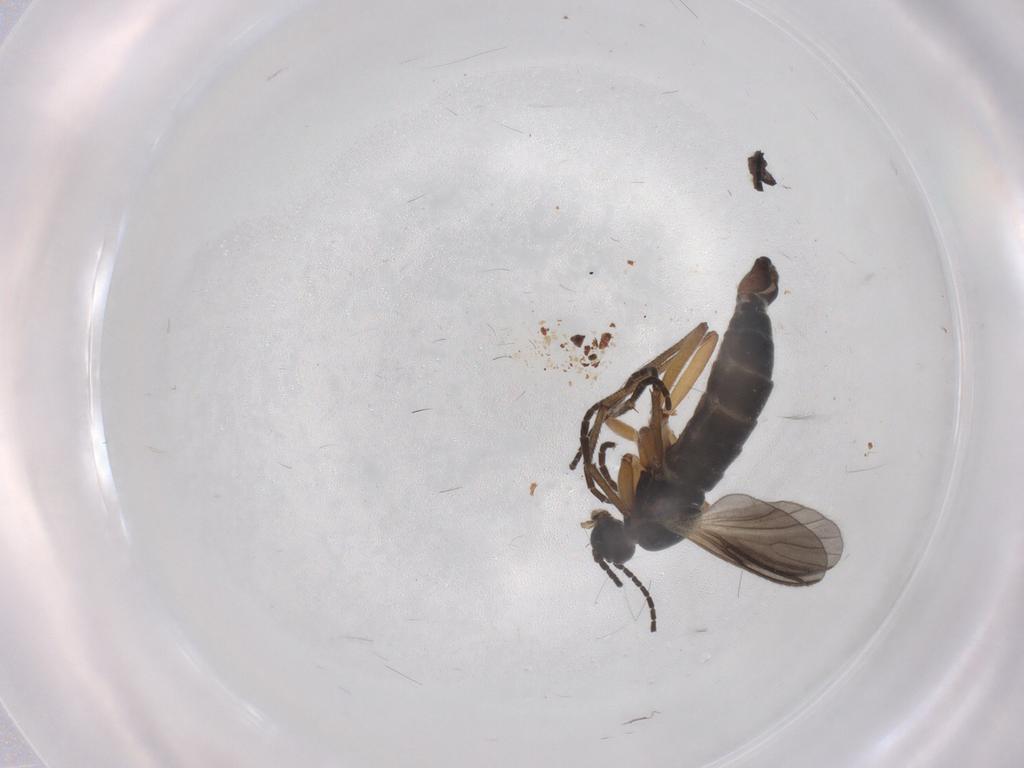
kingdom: Animalia
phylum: Arthropoda
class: Insecta
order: Diptera
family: Sciaridae
